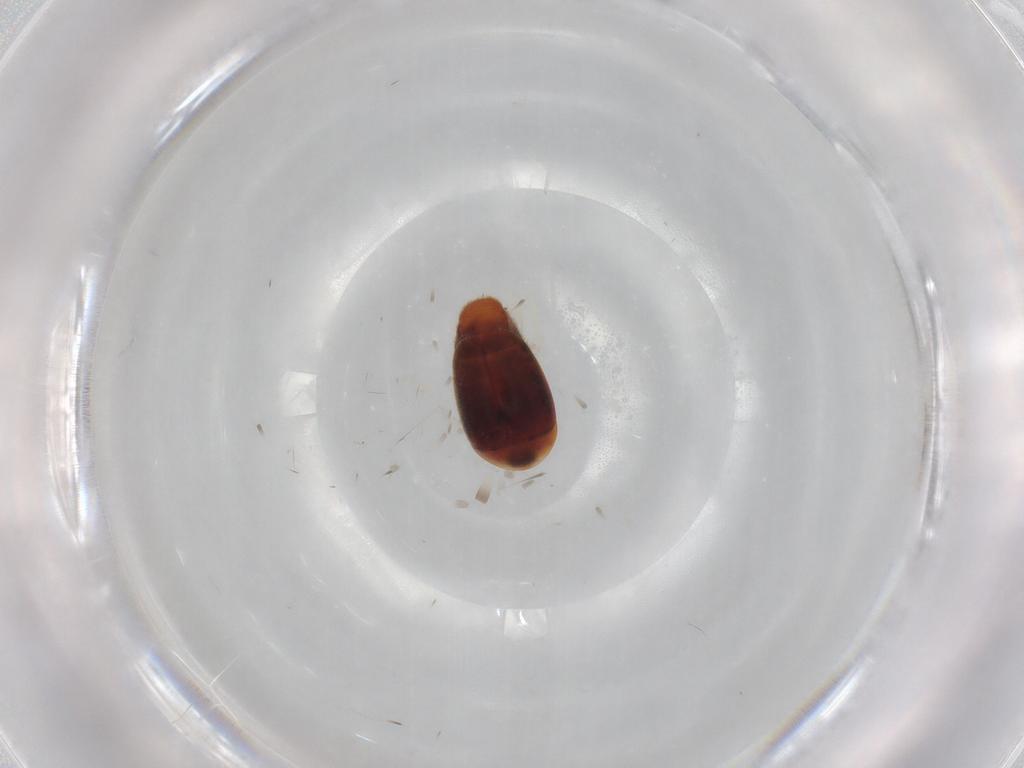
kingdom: Animalia
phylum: Arthropoda
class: Insecta
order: Coleoptera
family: Corylophidae
